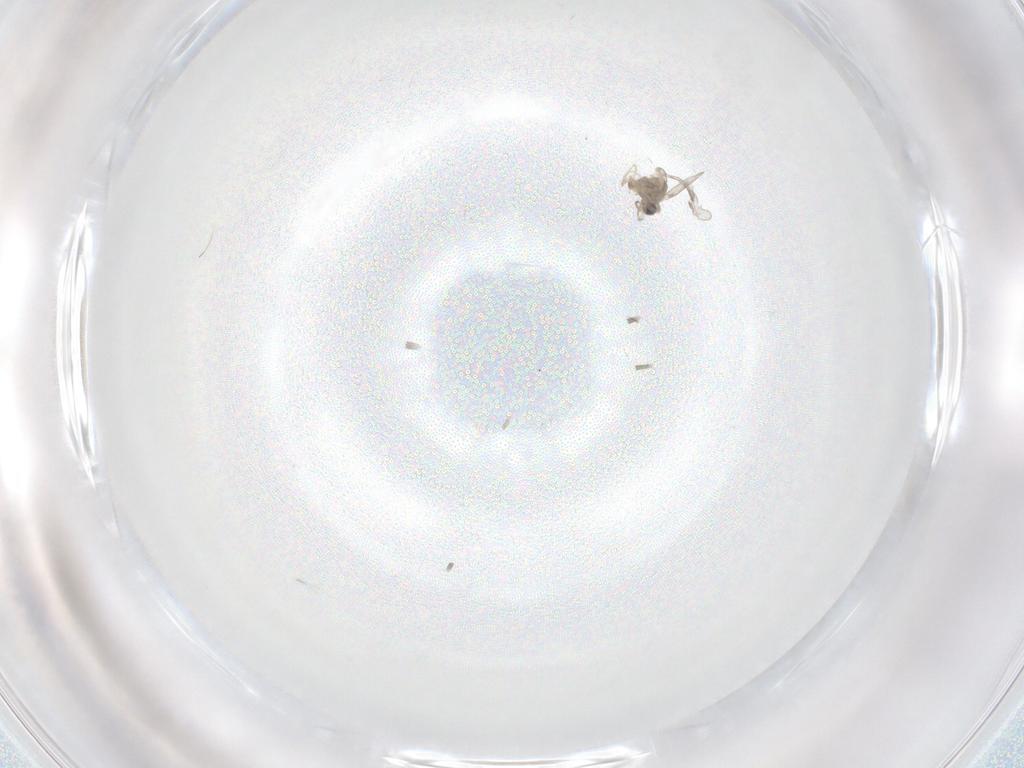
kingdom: Animalia
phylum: Arthropoda
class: Insecta
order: Diptera
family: Cecidomyiidae
